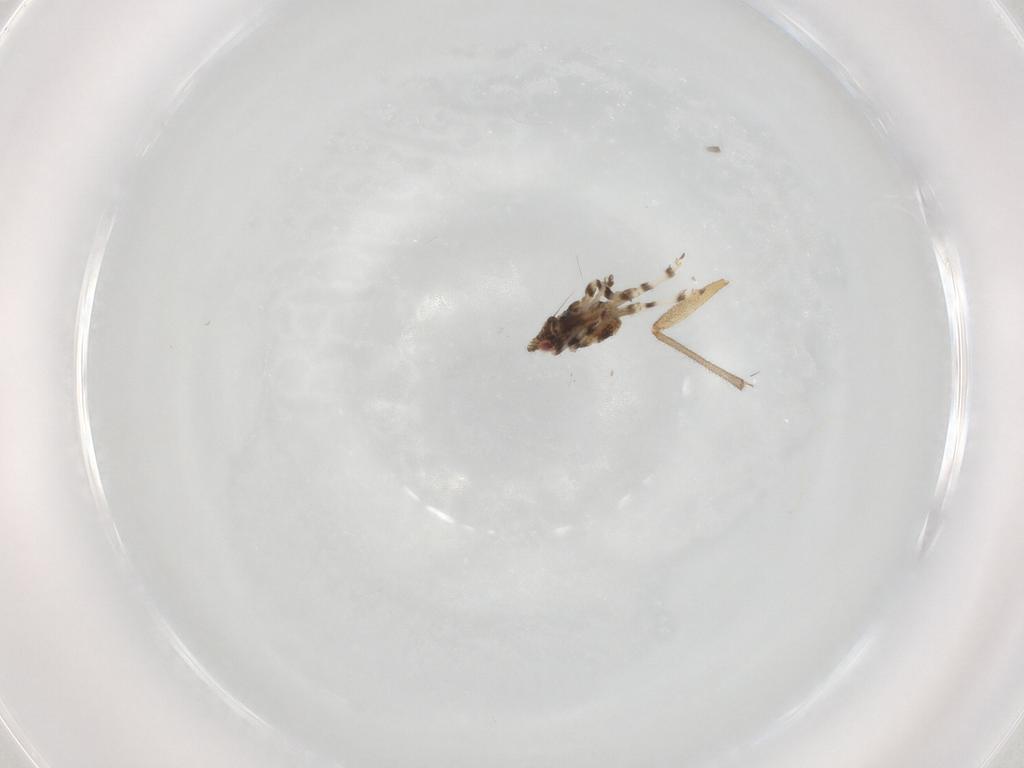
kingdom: Animalia
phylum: Arthropoda
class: Insecta
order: Hemiptera
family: Dictyopharidae
